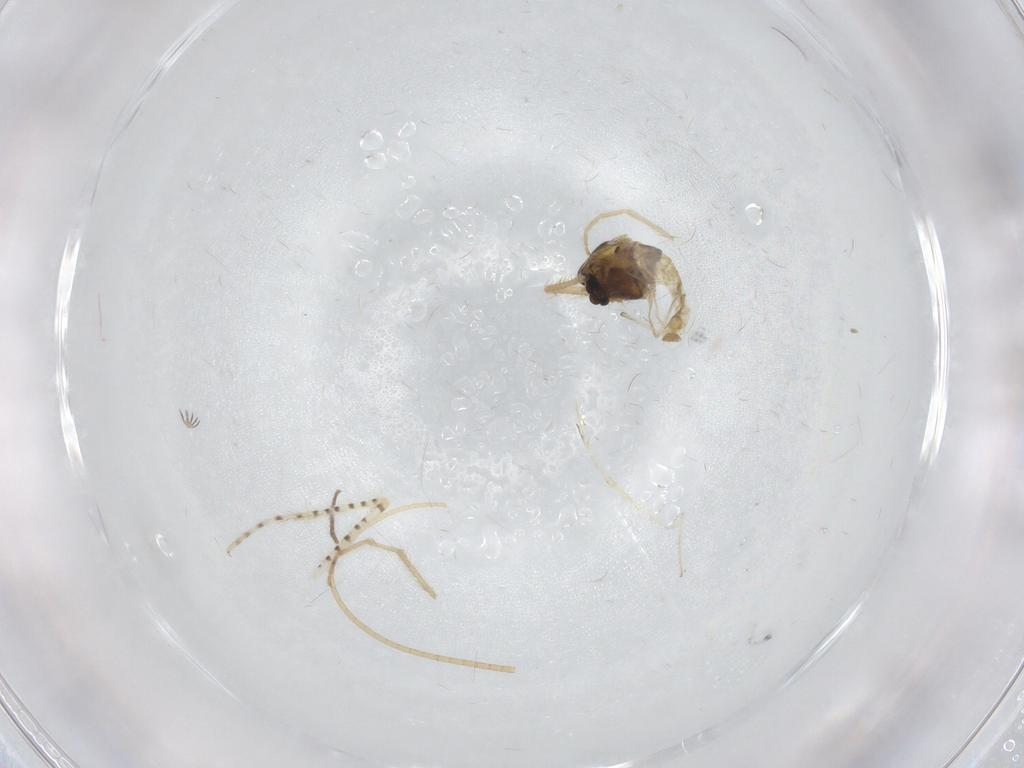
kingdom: Animalia
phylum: Arthropoda
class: Insecta
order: Diptera
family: Chironomidae
